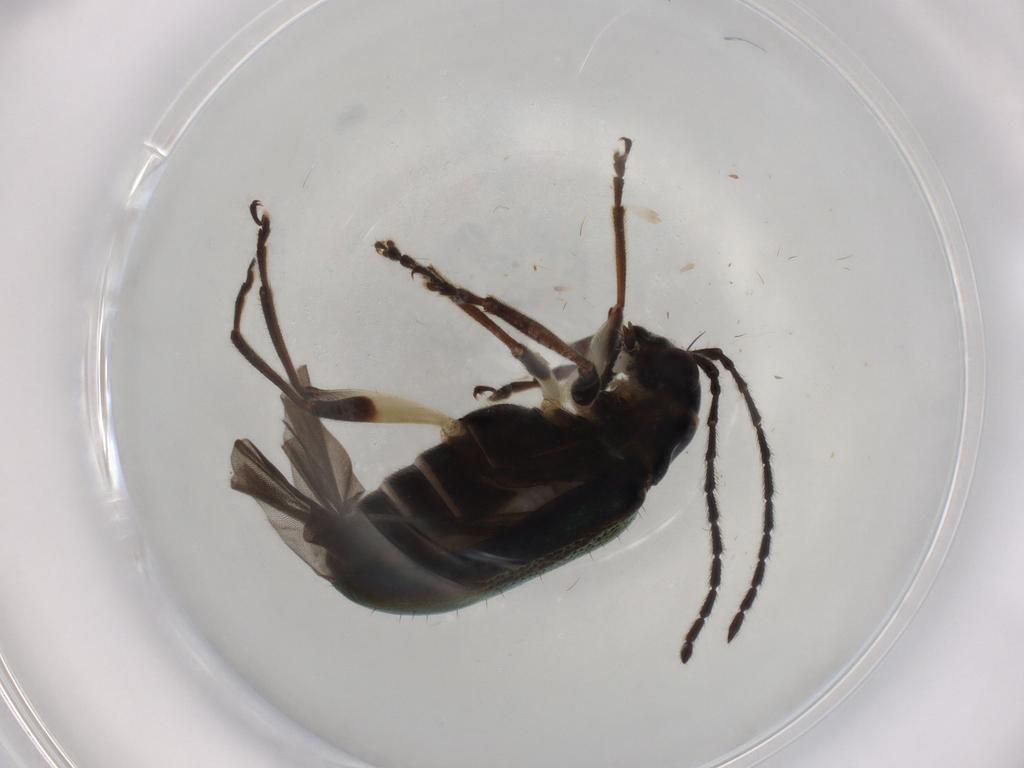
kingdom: Animalia
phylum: Arthropoda
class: Insecta
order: Coleoptera
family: Chrysomelidae
